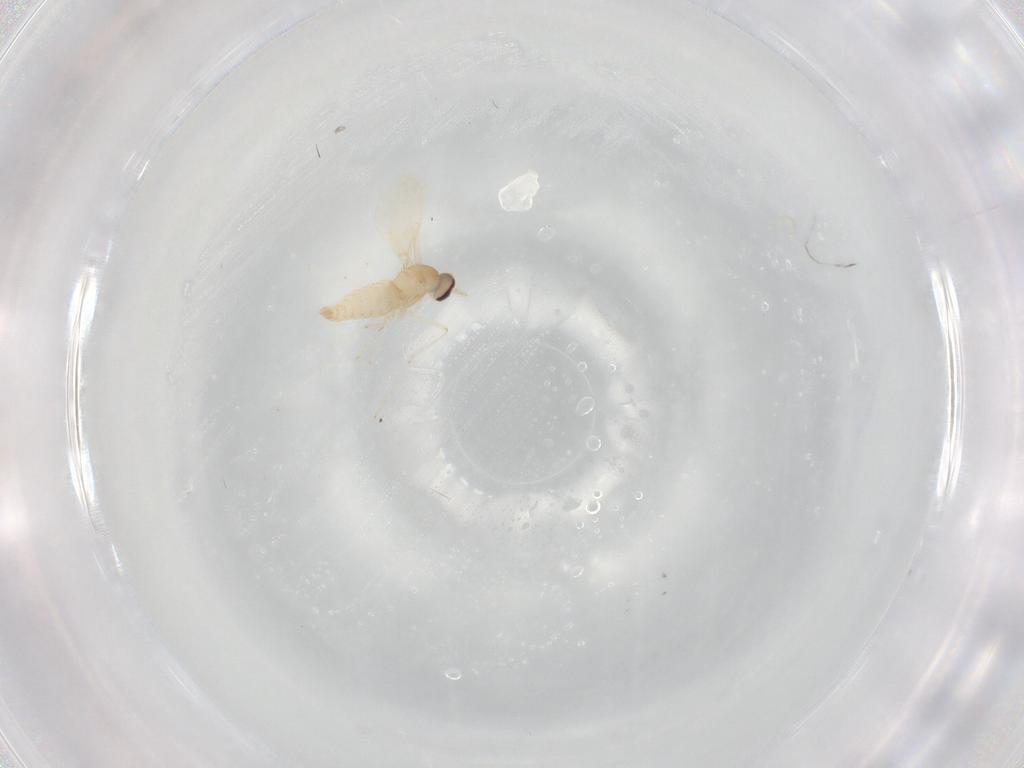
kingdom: Animalia
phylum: Arthropoda
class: Insecta
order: Diptera
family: Cecidomyiidae
